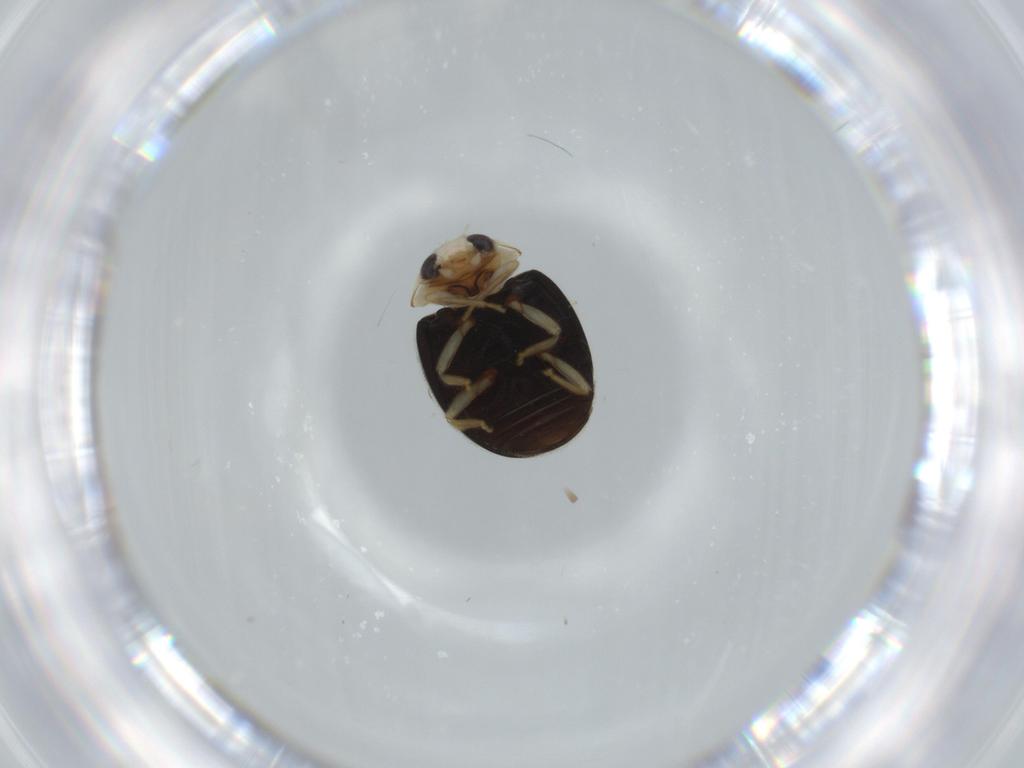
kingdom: Animalia
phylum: Arthropoda
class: Insecta
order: Coleoptera
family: Coccinellidae
